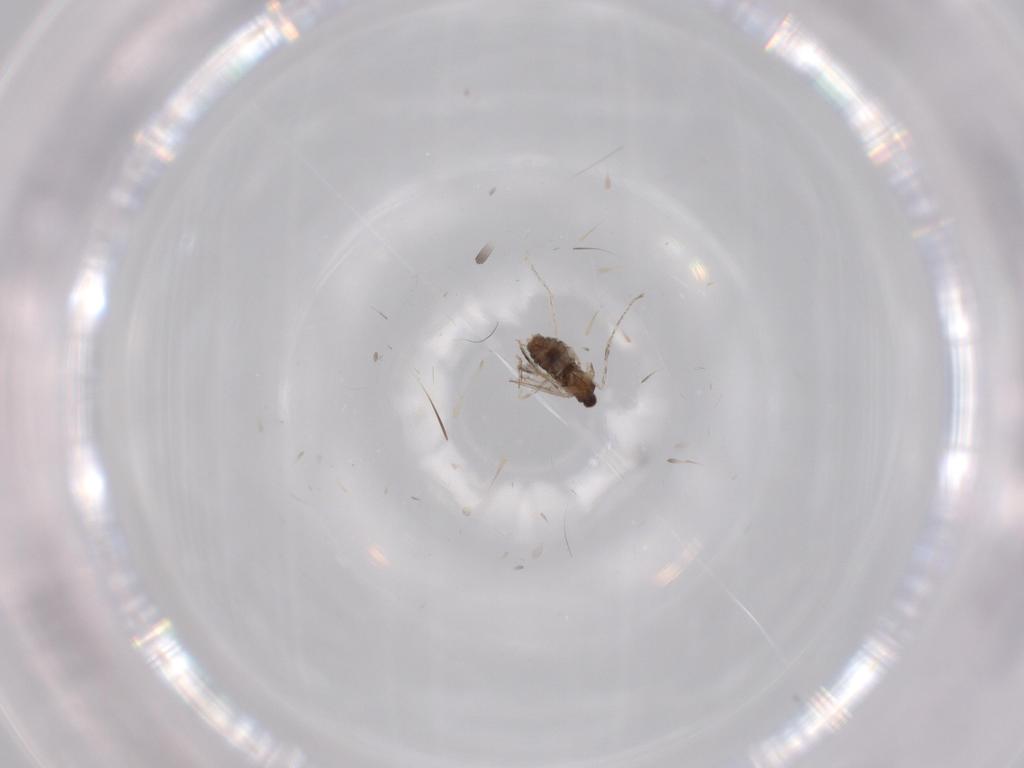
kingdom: Animalia
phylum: Arthropoda
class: Insecta
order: Diptera
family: Cecidomyiidae
